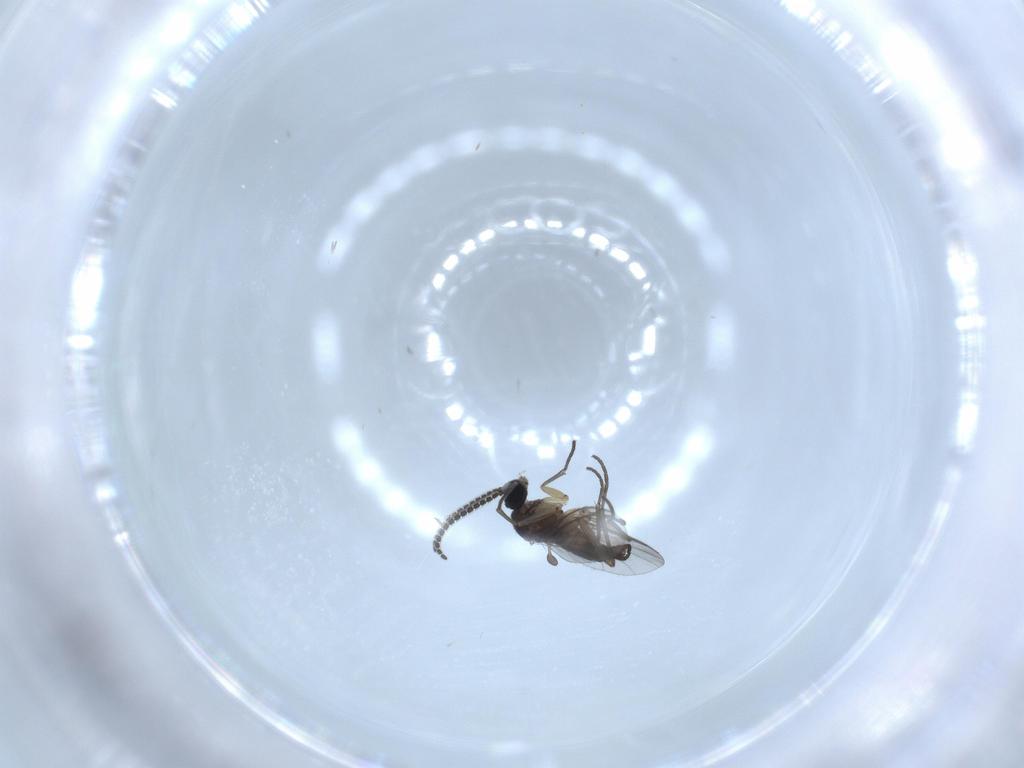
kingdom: Animalia
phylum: Arthropoda
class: Insecta
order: Diptera
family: Sciaridae
